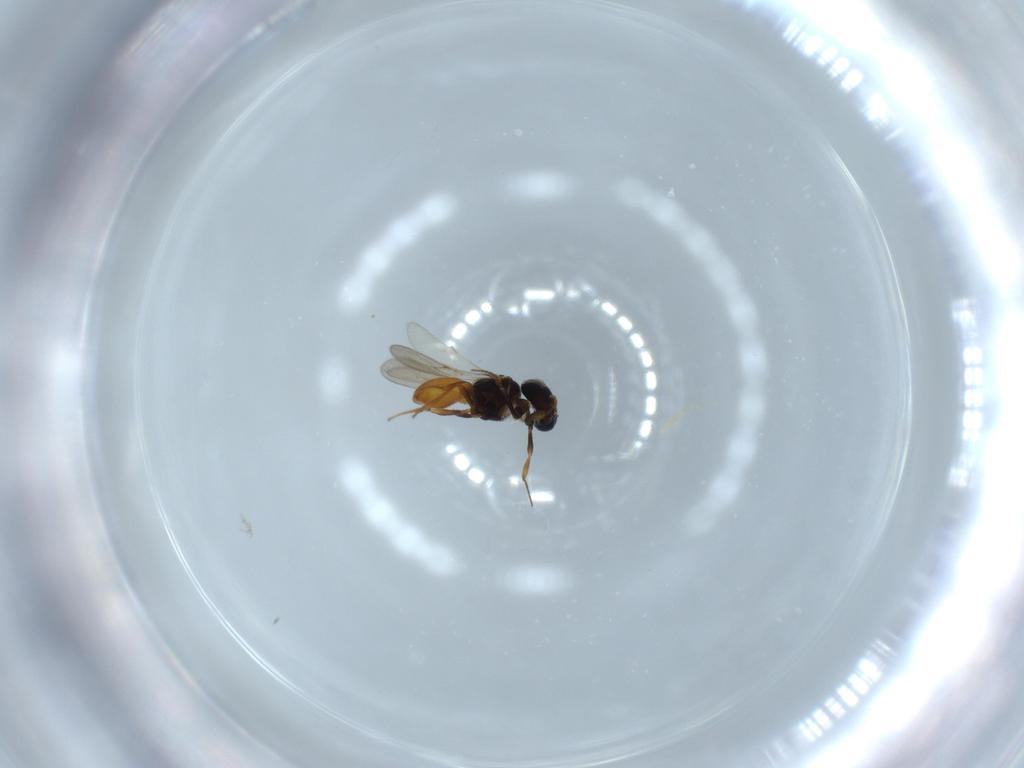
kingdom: Animalia
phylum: Arthropoda
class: Insecta
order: Hymenoptera
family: Scelionidae
